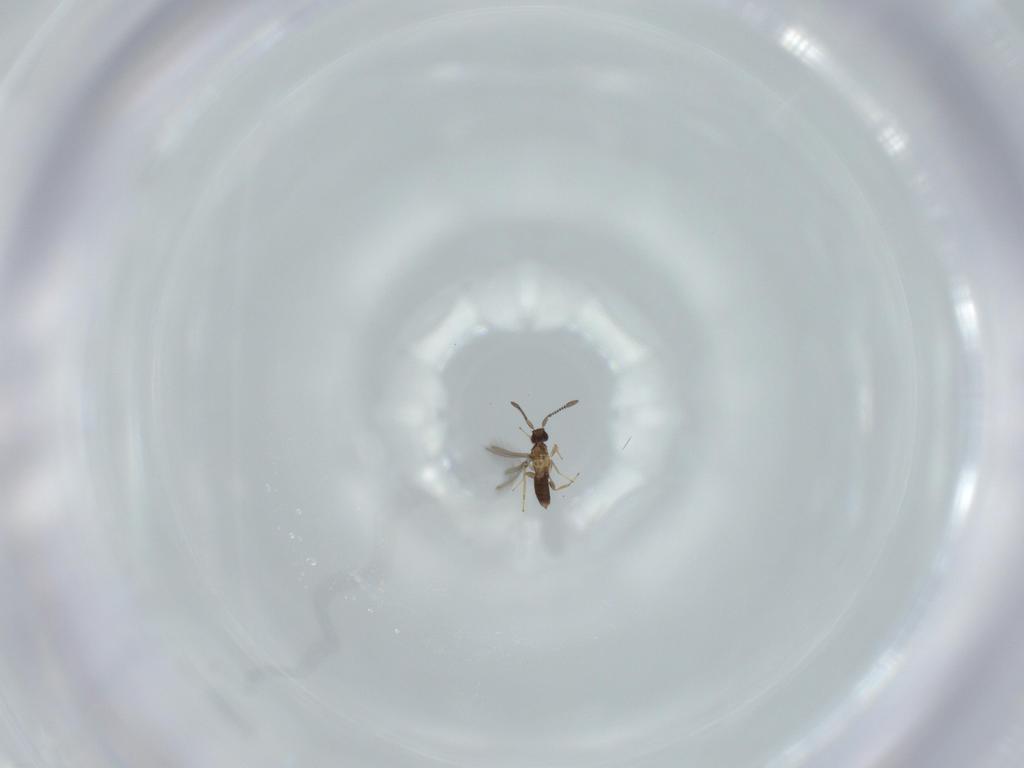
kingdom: Animalia
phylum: Arthropoda
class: Insecta
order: Hymenoptera
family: Mymaridae
